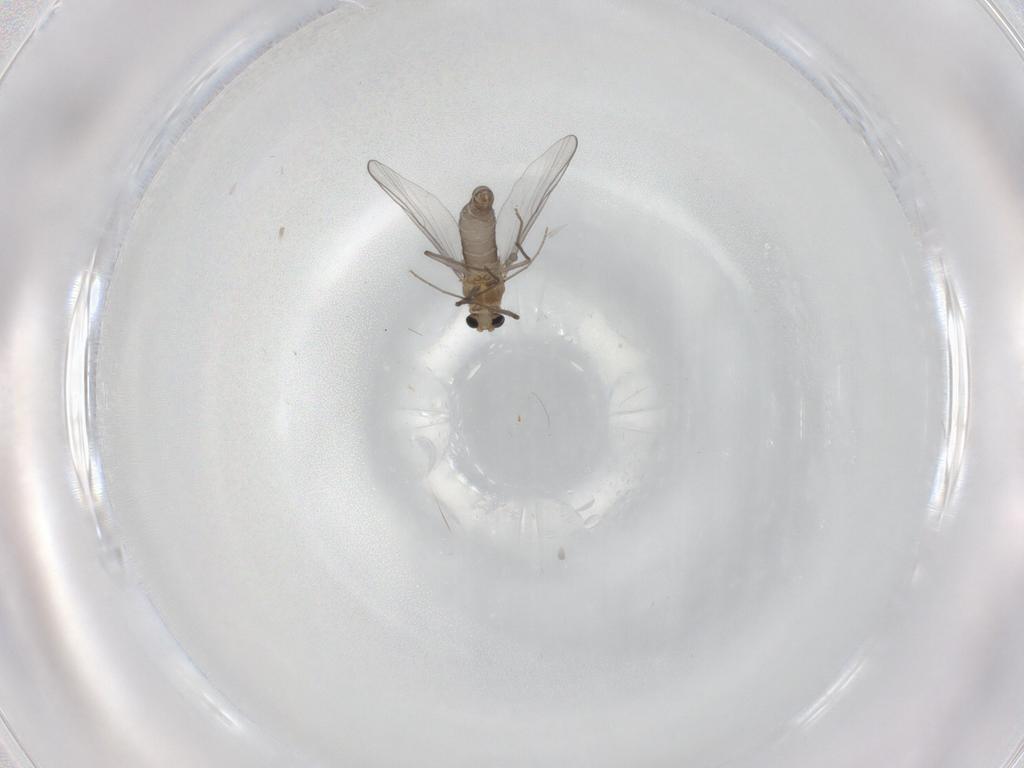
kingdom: Animalia
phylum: Arthropoda
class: Insecta
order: Diptera
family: Chironomidae
